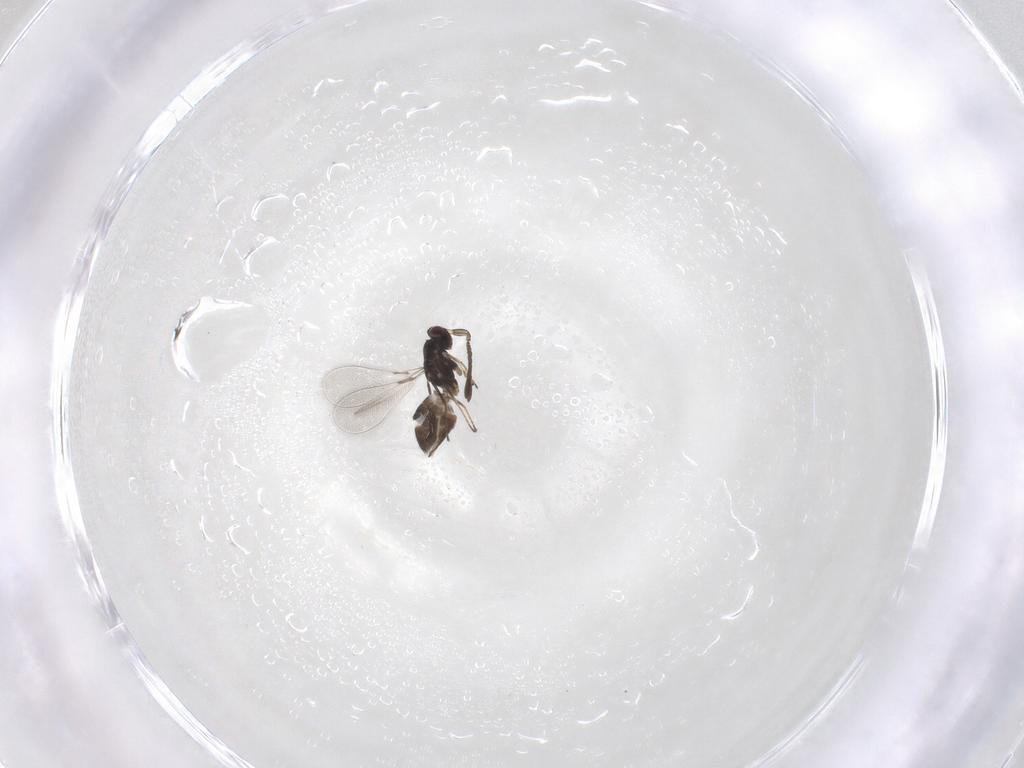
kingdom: Animalia
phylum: Arthropoda
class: Insecta
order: Hymenoptera
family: Mymaridae
